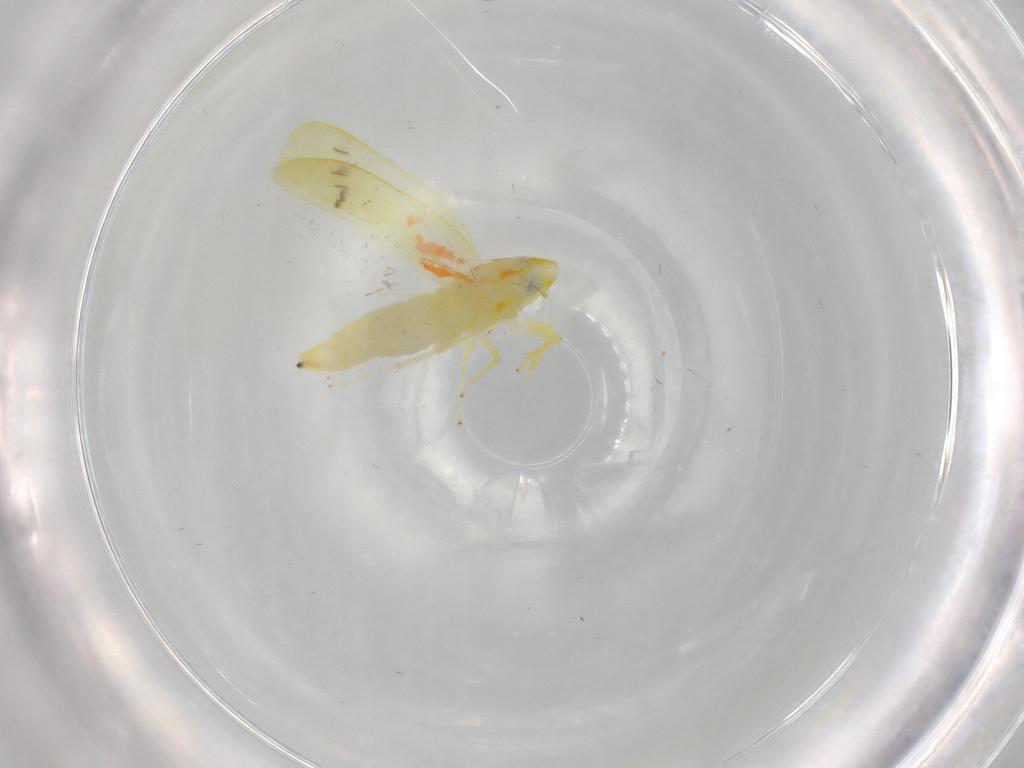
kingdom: Animalia
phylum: Arthropoda
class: Insecta
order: Hemiptera
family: Cicadellidae
